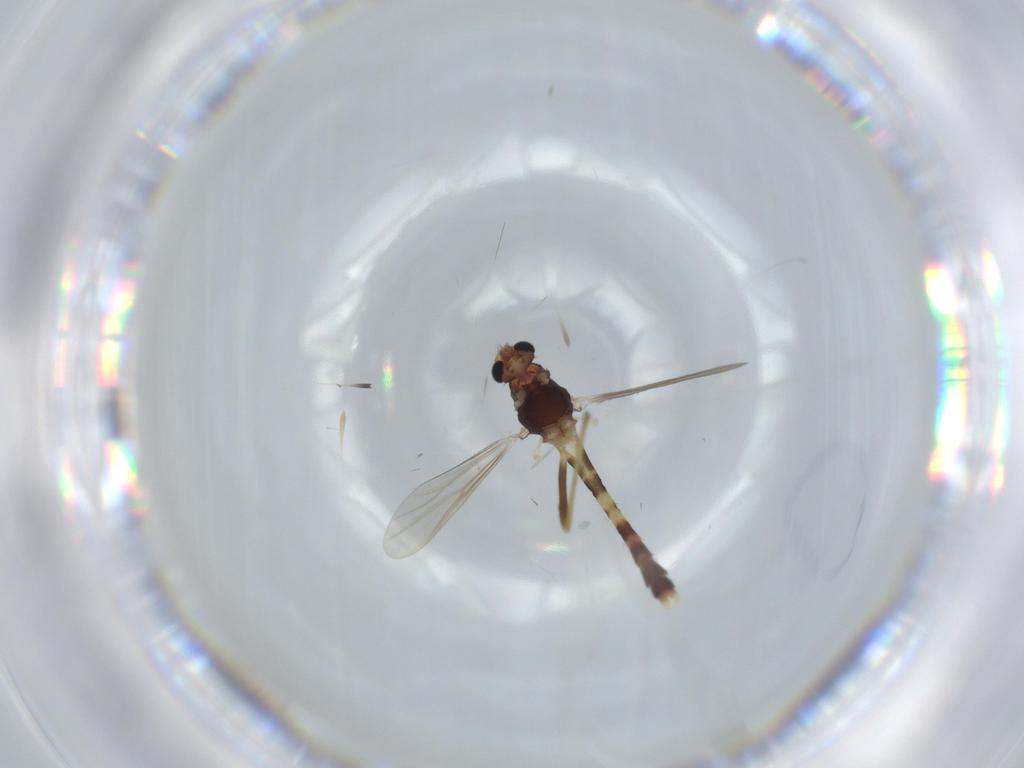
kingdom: Animalia
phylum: Arthropoda
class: Insecta
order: Diptera
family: Chironomidae
